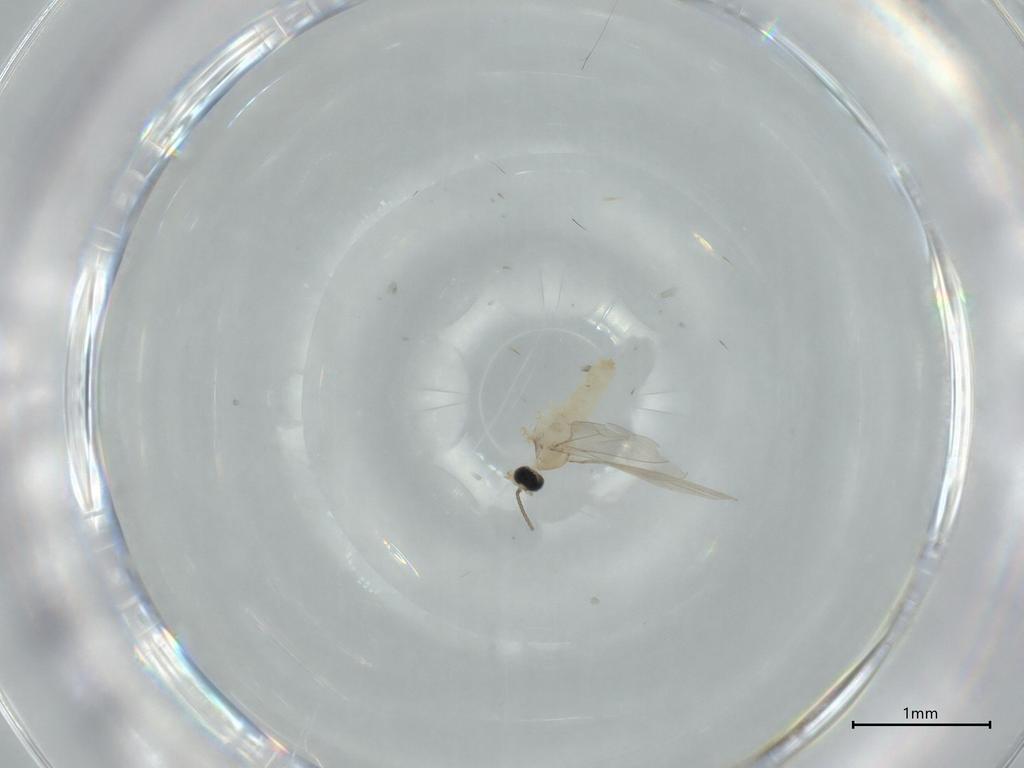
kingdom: Animalia
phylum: Arthropoda
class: Insecta
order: Diptera
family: Cecidomyiidae
